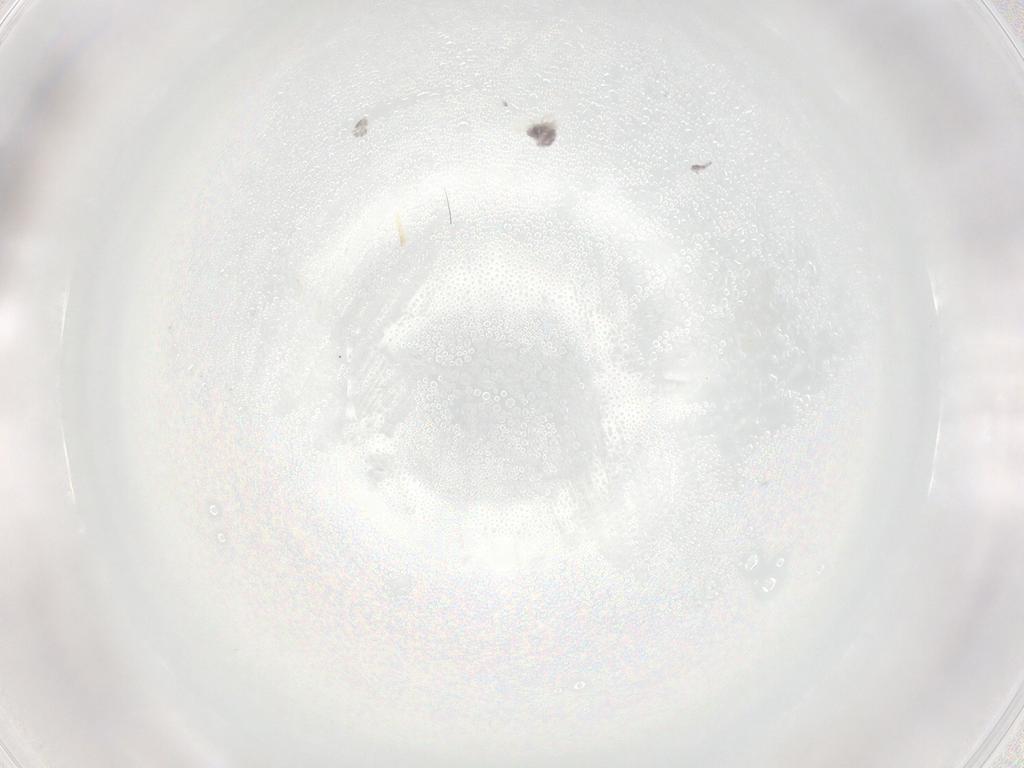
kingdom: Animalia
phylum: Arthropoda
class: Arachnida
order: Trombidiformes
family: Eupodidae
